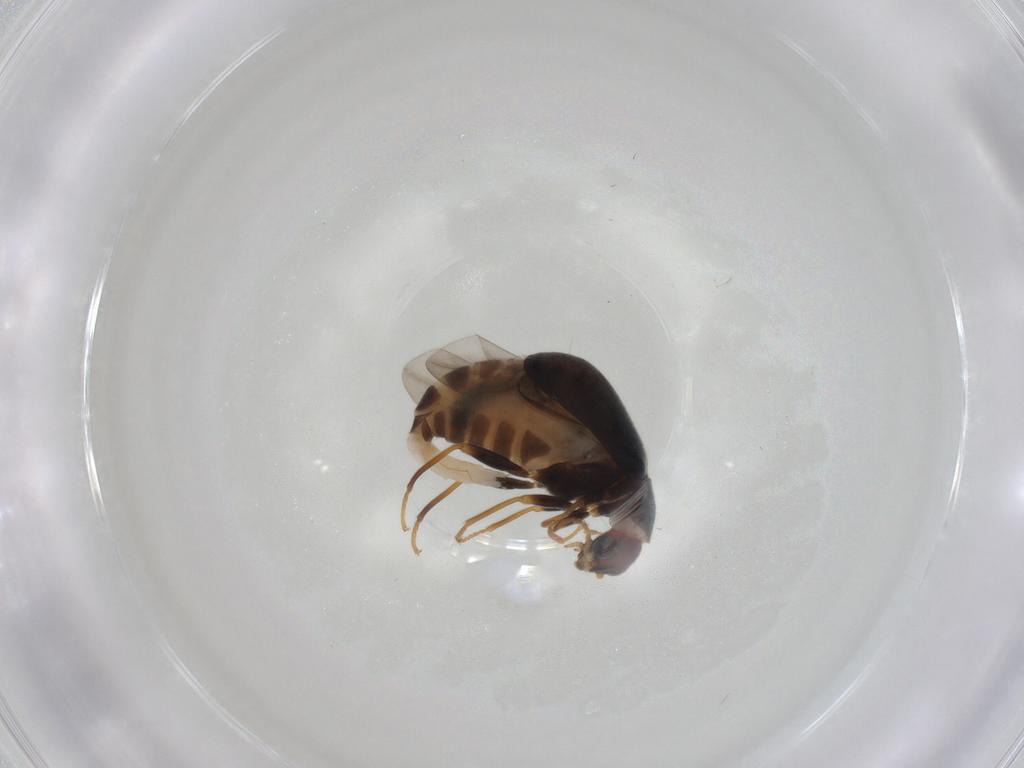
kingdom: Animalia
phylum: Arthropoda
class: Insecta
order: Coleoptera
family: Melyridae
